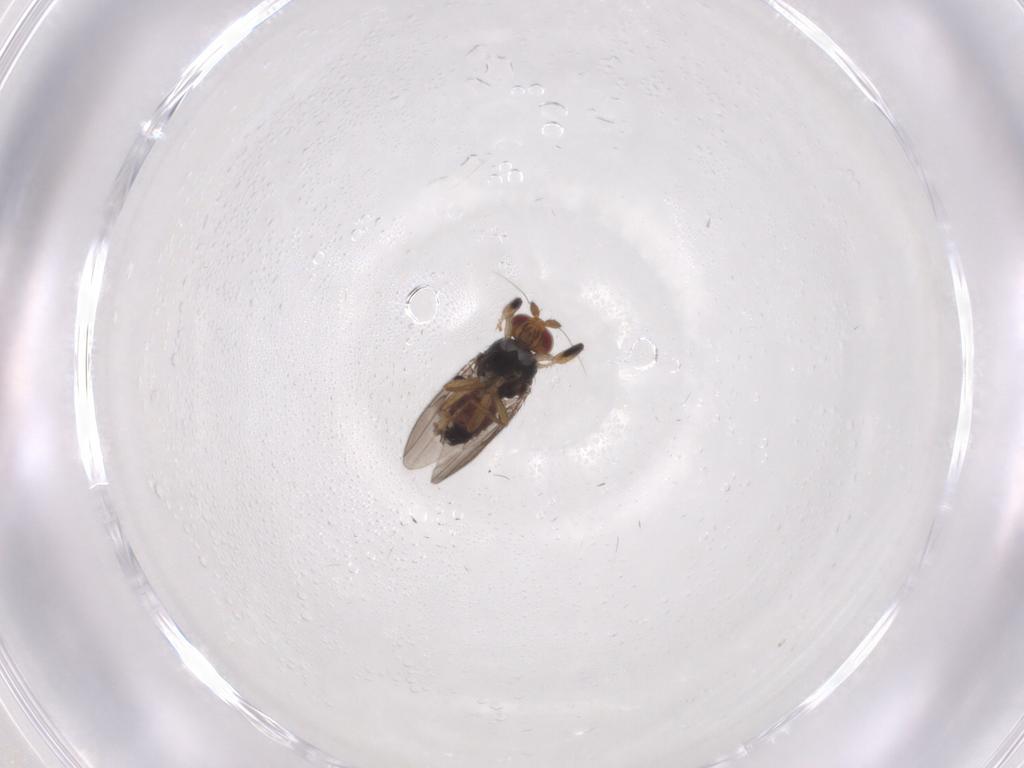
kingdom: Animalia
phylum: Arthropoda
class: Insecta
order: Diptera
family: Sphaeroceridae
